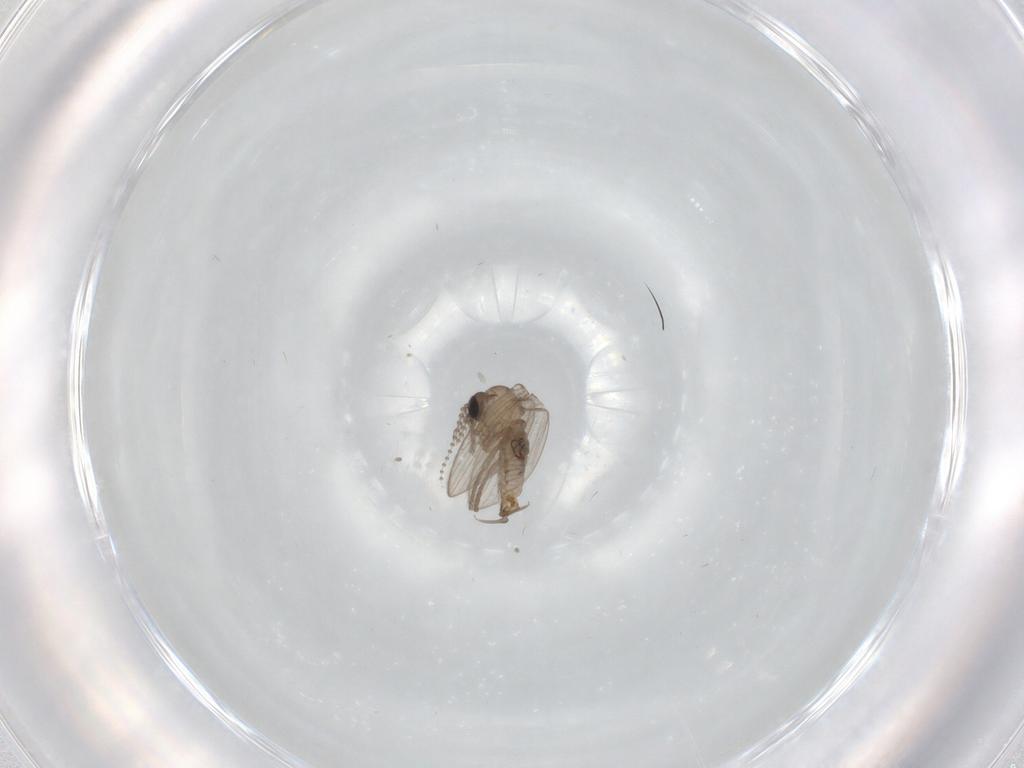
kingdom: Animalia
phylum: Arthropoda
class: Insecta
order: Diptera
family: Psychodidae
